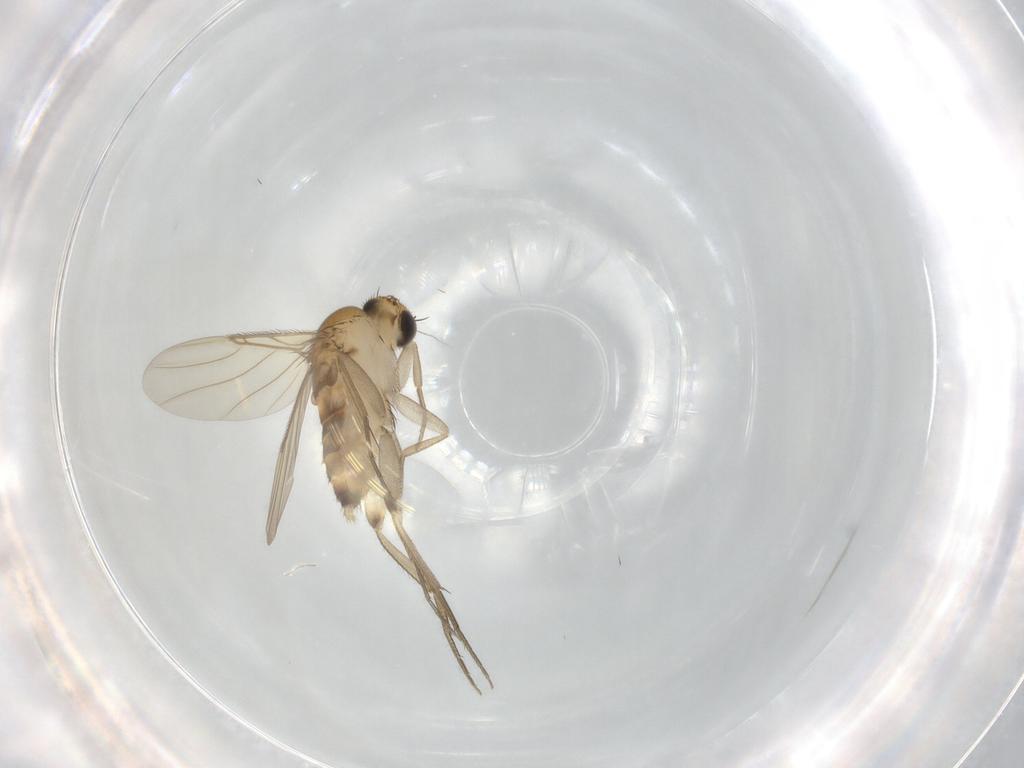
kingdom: Animalia
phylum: Arthropoda
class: Insecta
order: Diptera
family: Phoridae
